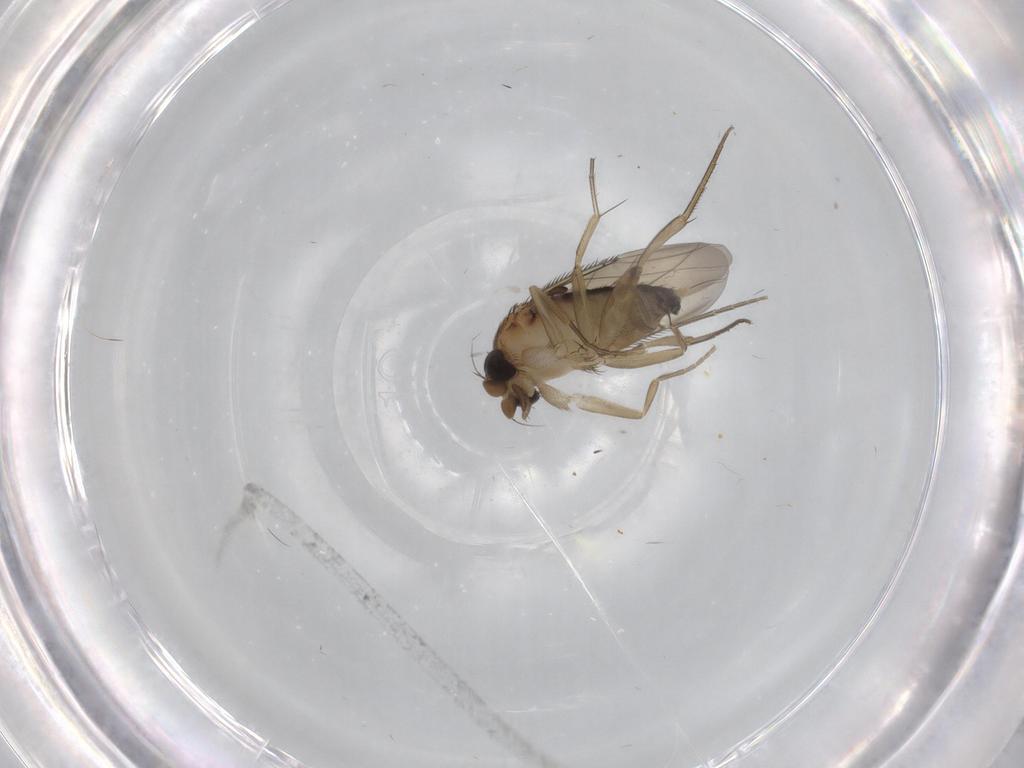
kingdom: Animalia
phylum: Arthropoda
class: Insecta
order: Diptera
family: Phoridae
